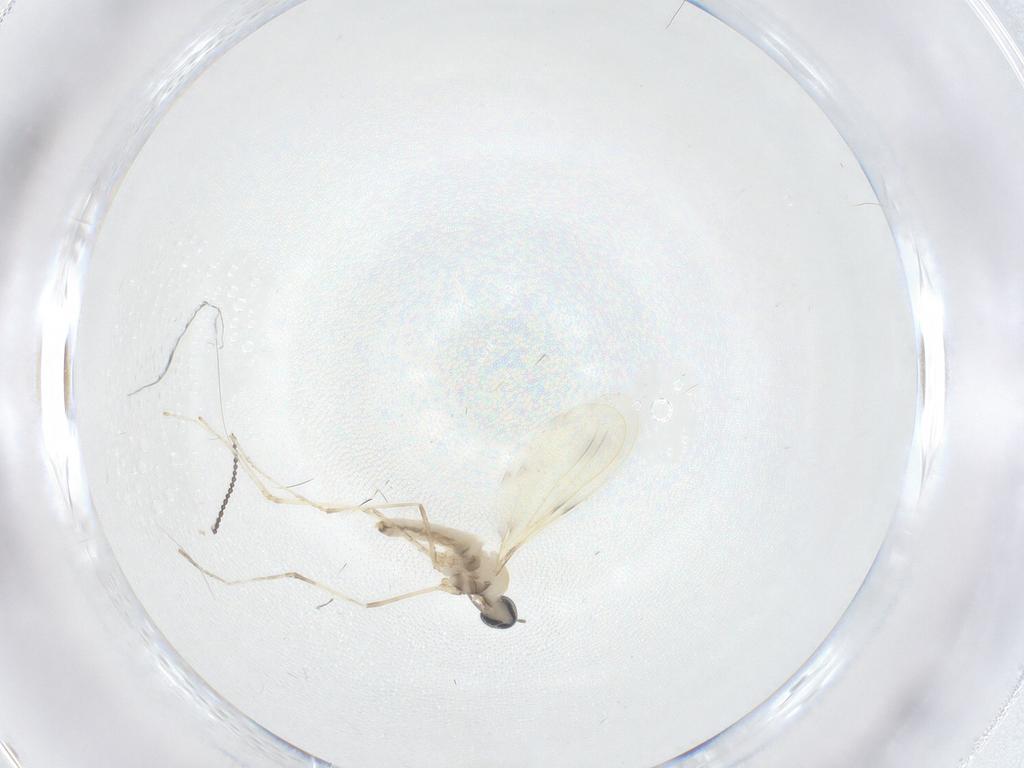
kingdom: Animalia
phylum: Arthropoda
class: Insecta
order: Diptera
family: Cecidomyiidae
